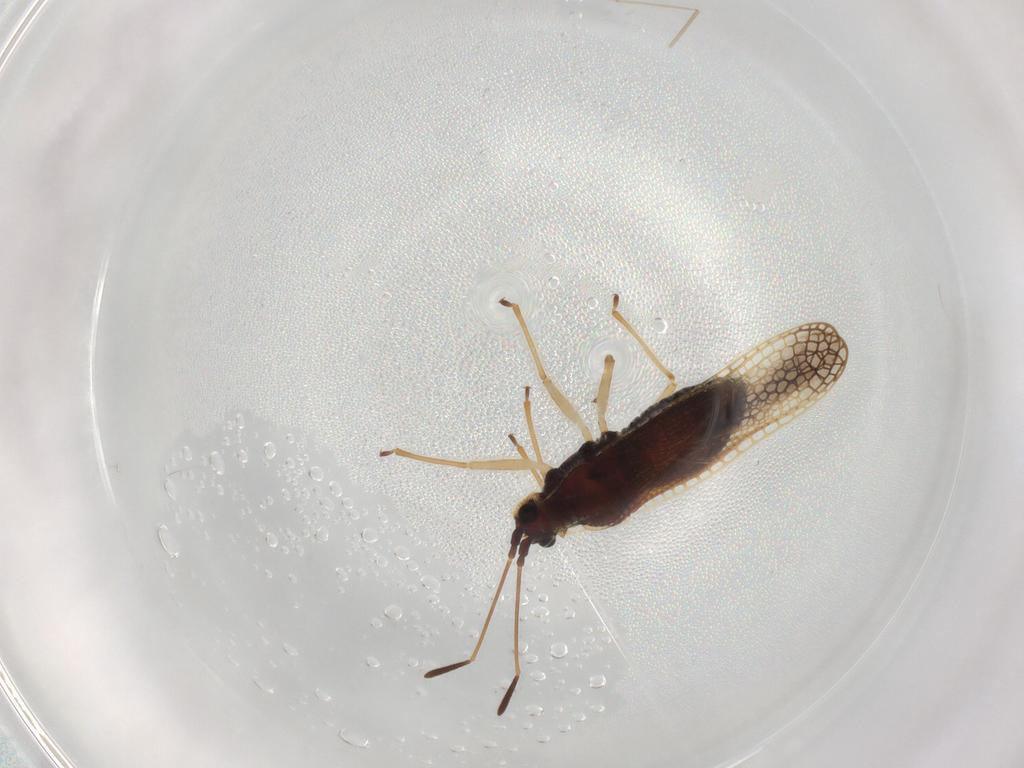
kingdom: Animalia
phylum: Arthropoda
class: Insecta
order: Hemiptera
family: Tingidae
